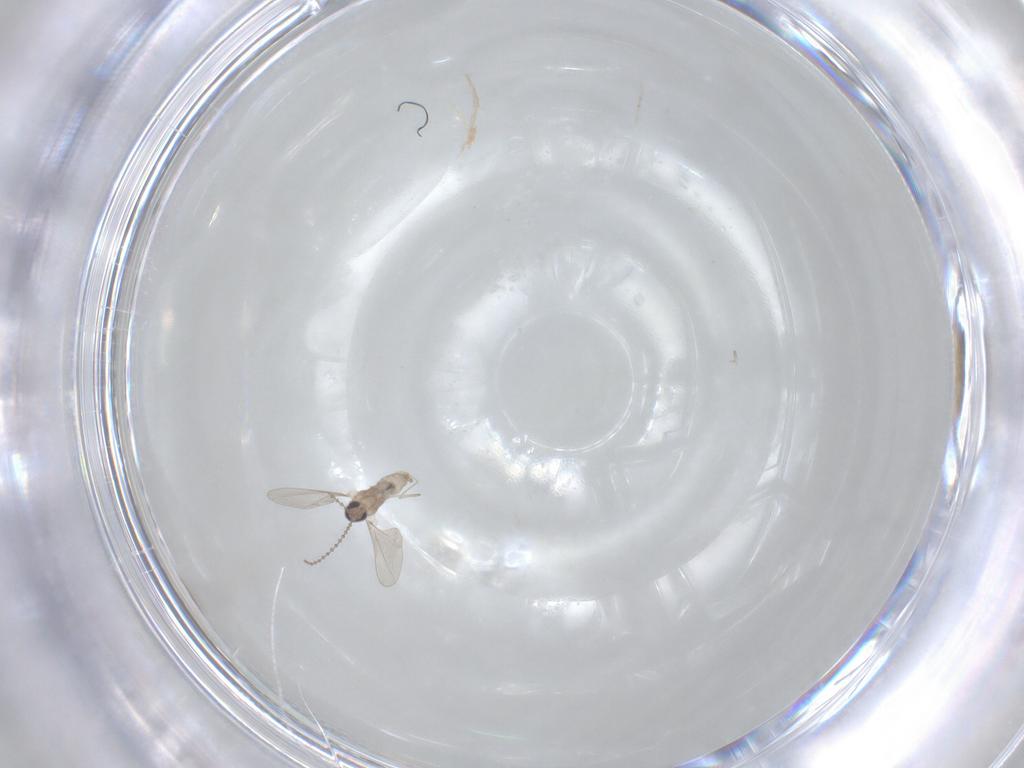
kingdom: Animalia
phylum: Arthropoda
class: Insecta
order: Diptera
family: Cecidomyiidae
